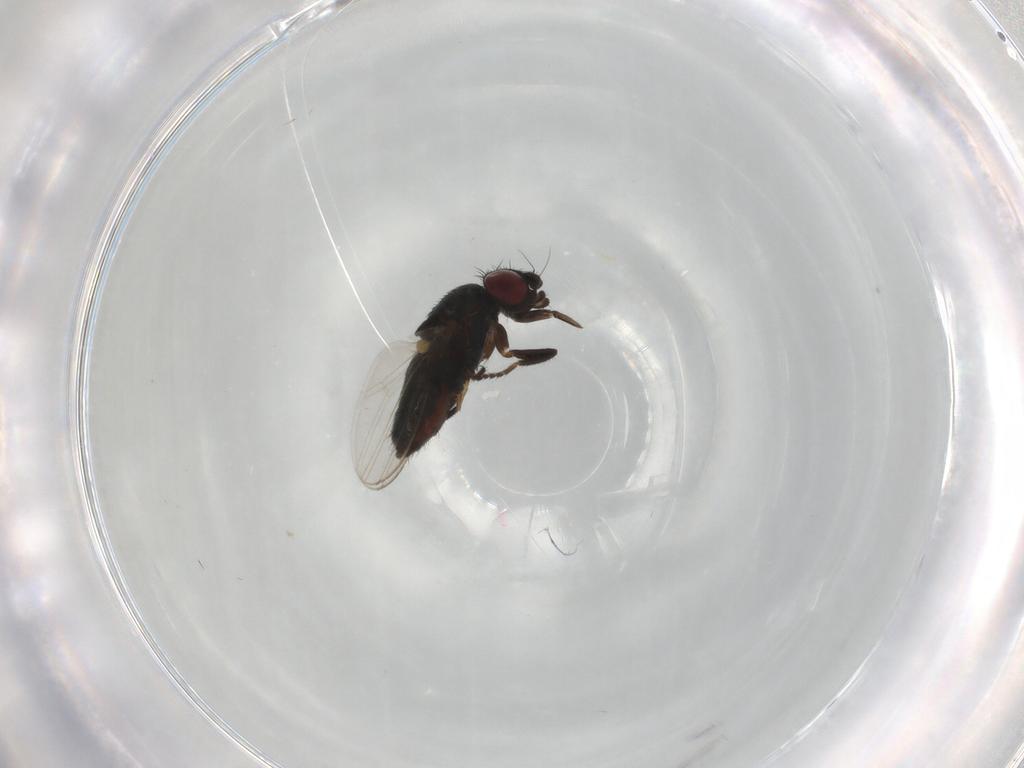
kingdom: Animalia
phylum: Arthropoda
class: Insecta
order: Diptera
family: Milichiidae
